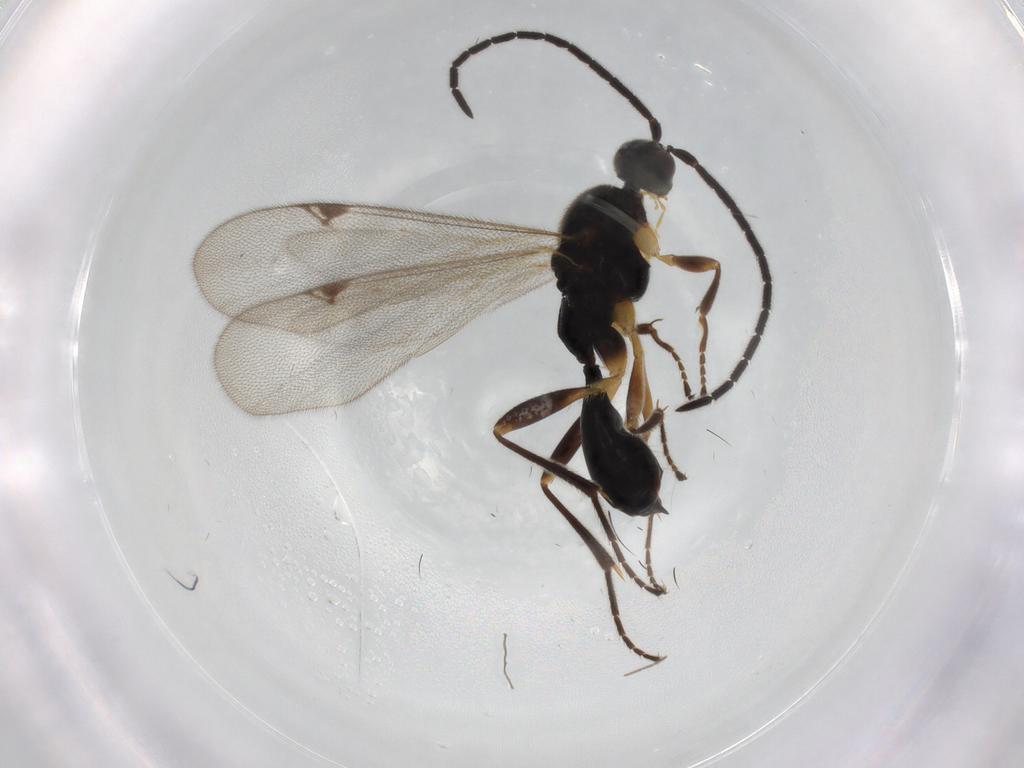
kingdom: Animalia
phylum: Arthropoda
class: Insecta
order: Hymenoptera
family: Proctotrupidae
